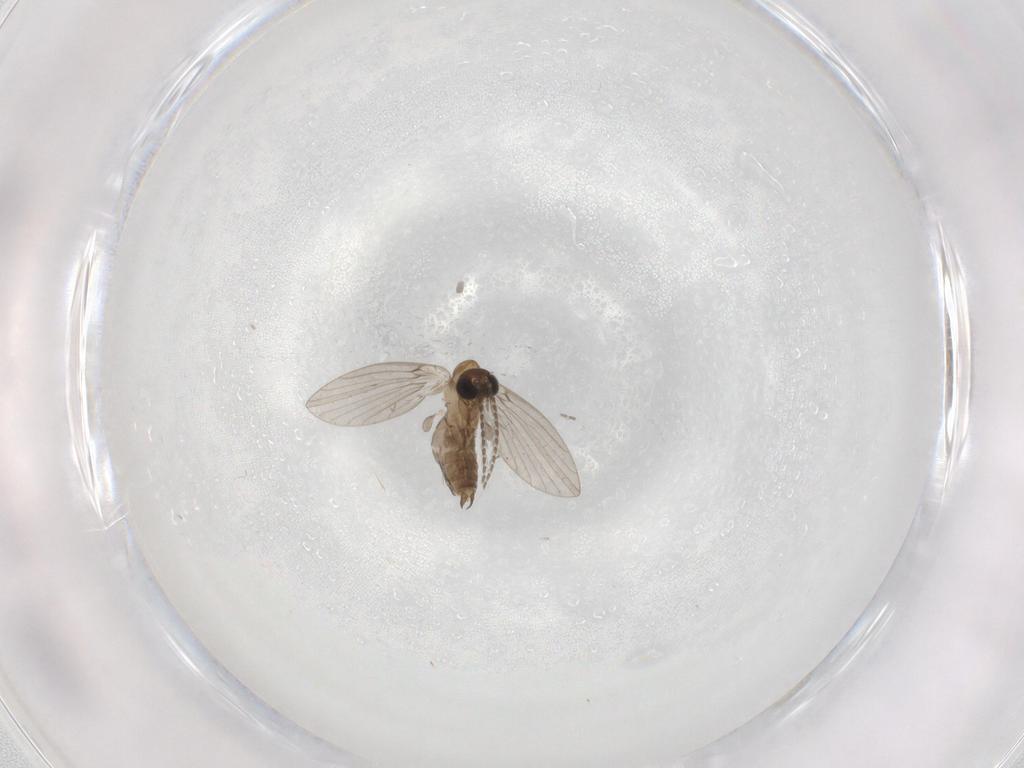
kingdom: Animalia
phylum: Arthropoda
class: Insecta
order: Diptera
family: Psychodidae
